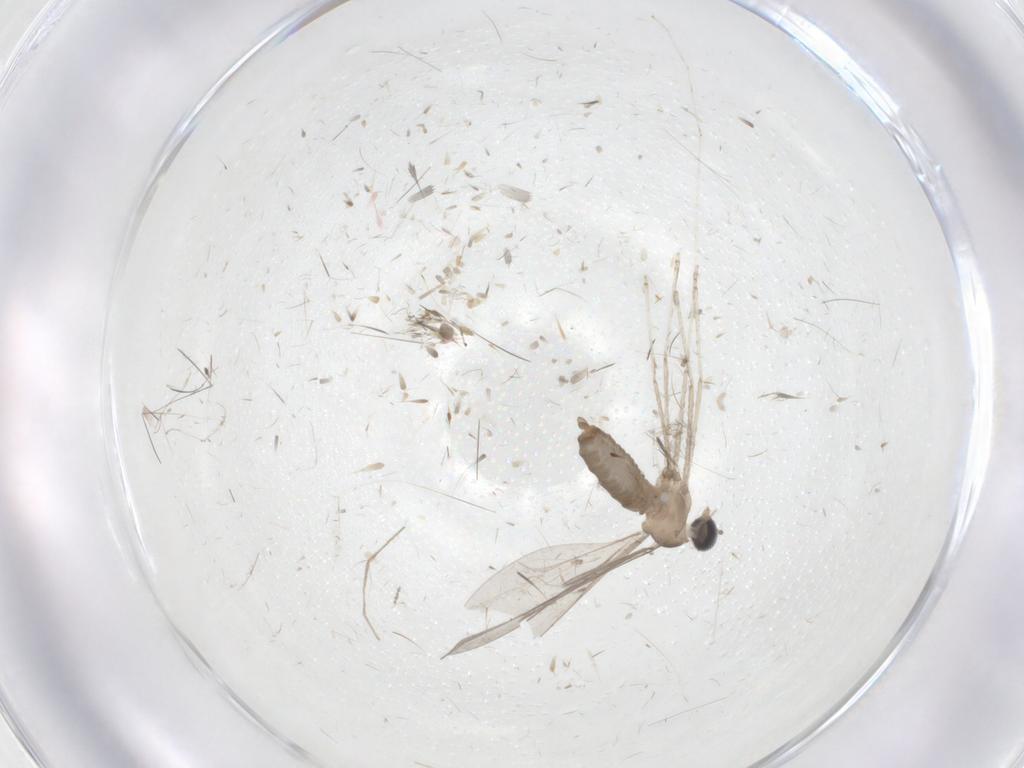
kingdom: Animalia
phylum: Arthropoda
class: Insecta
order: Diptera
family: Cecidomyiidae
